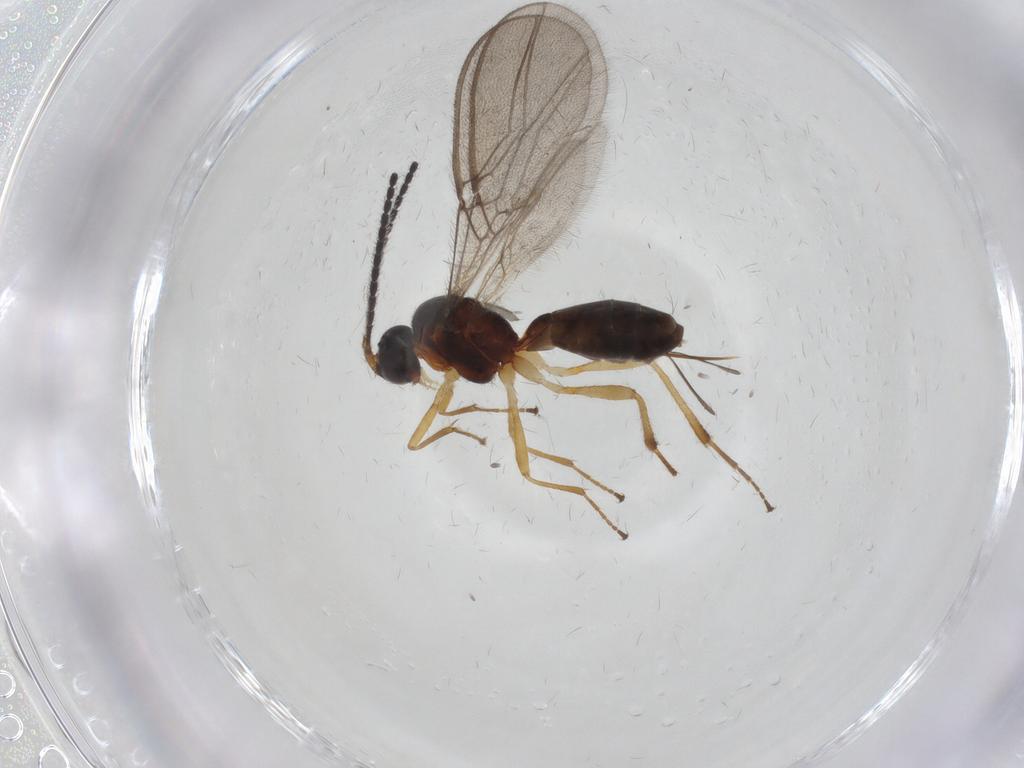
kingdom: Animalia
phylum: Arthropoda
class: Insecta
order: Hymenoptera
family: Braconidae
